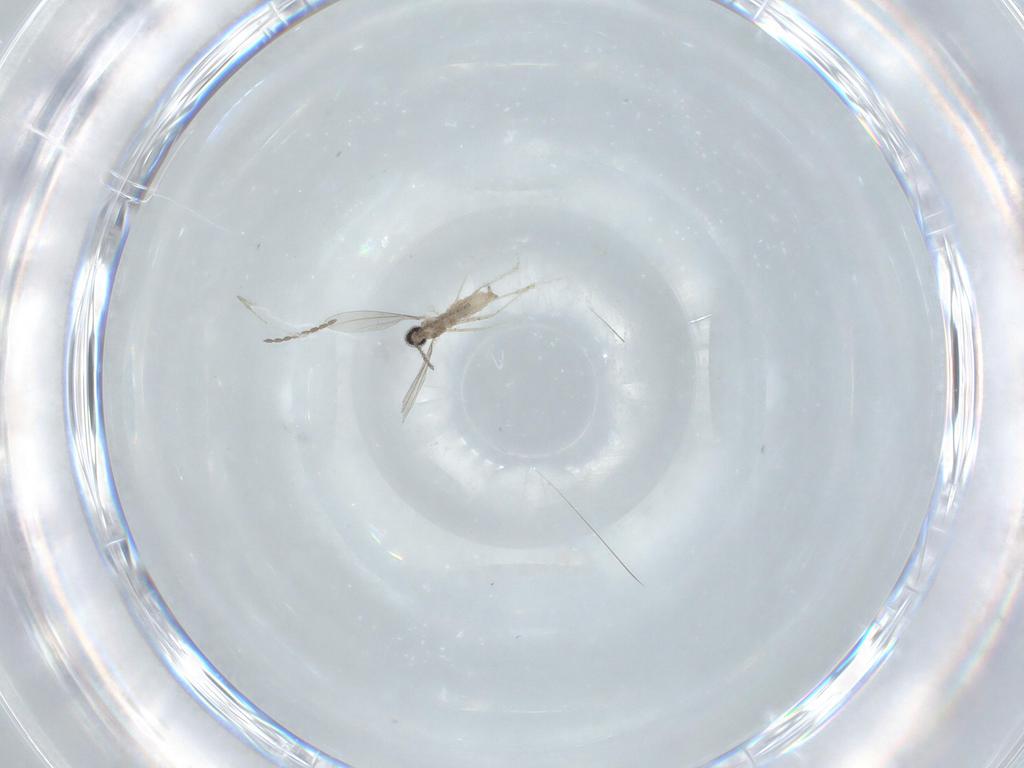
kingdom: Animalia
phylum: Arthropoda
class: Insecta
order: Diptera
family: Cecidomyiidae
